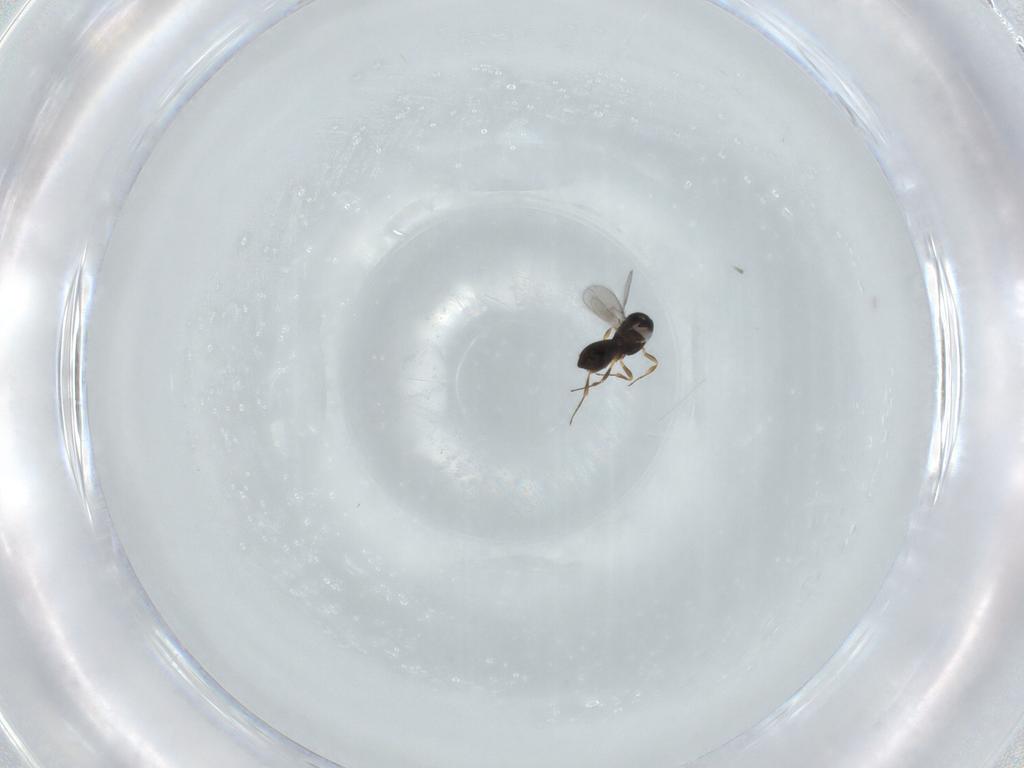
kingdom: Animalia
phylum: Arthropoda
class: Insecta
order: Hymenoptera
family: Scelionidae
